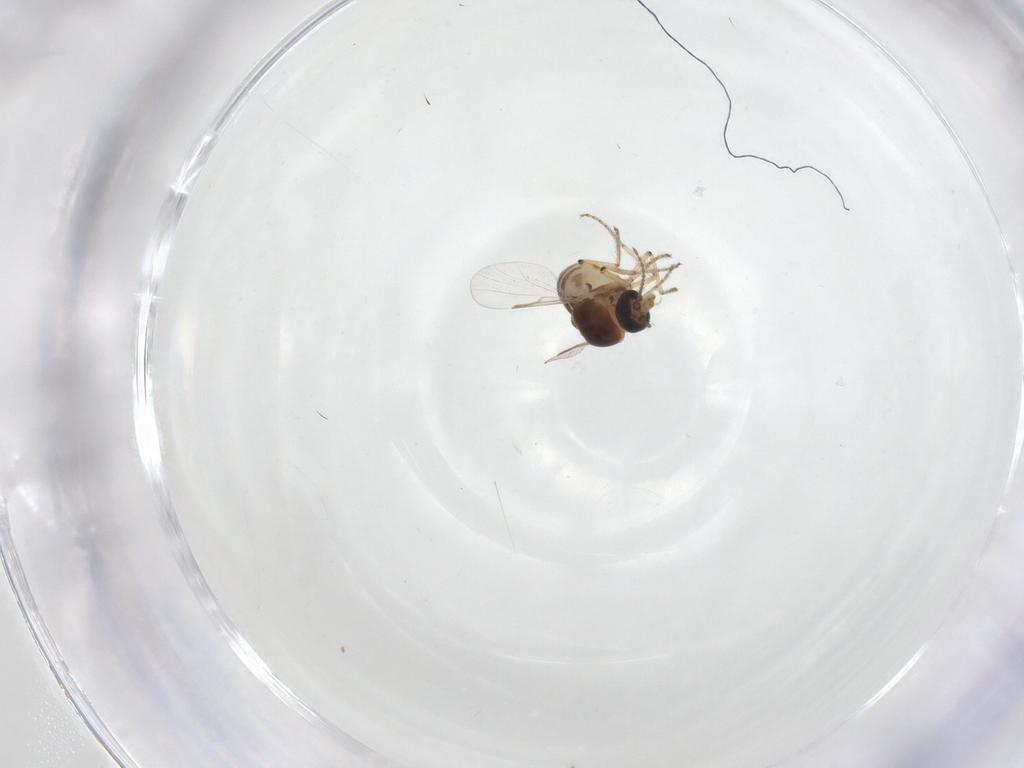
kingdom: Animalia
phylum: Arthropoda
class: Insecta
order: Diptera
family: Ceratopogonidae
